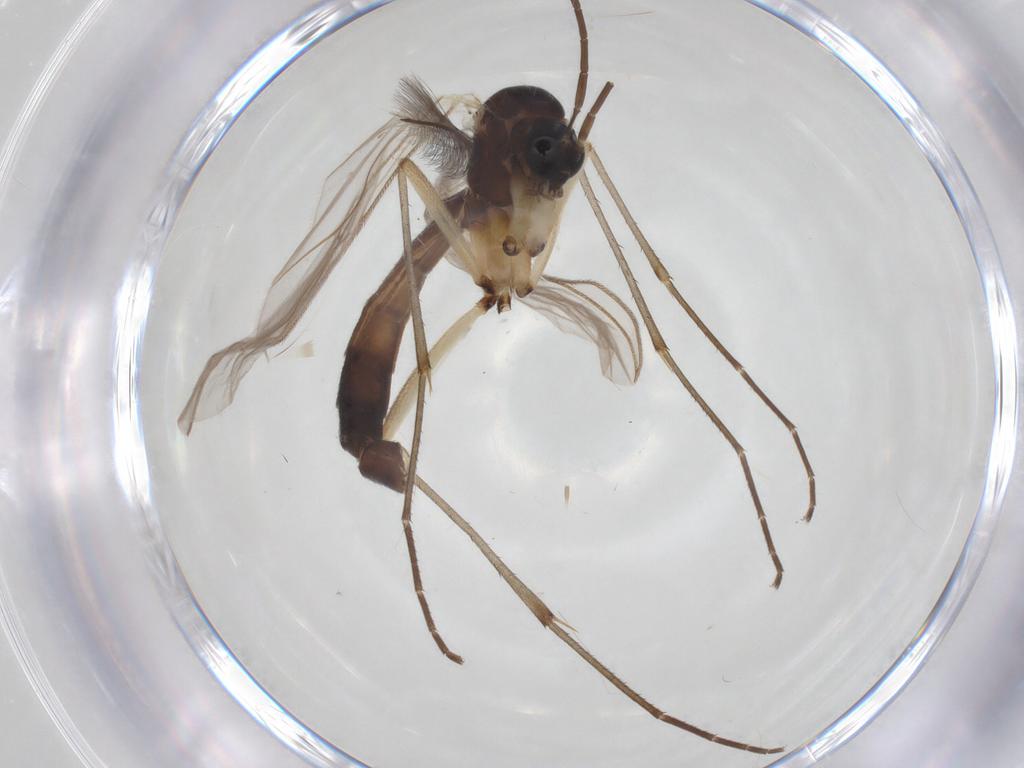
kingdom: Animalia
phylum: Arthropoda
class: Insecta
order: Diptera
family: Mycetophilidae
